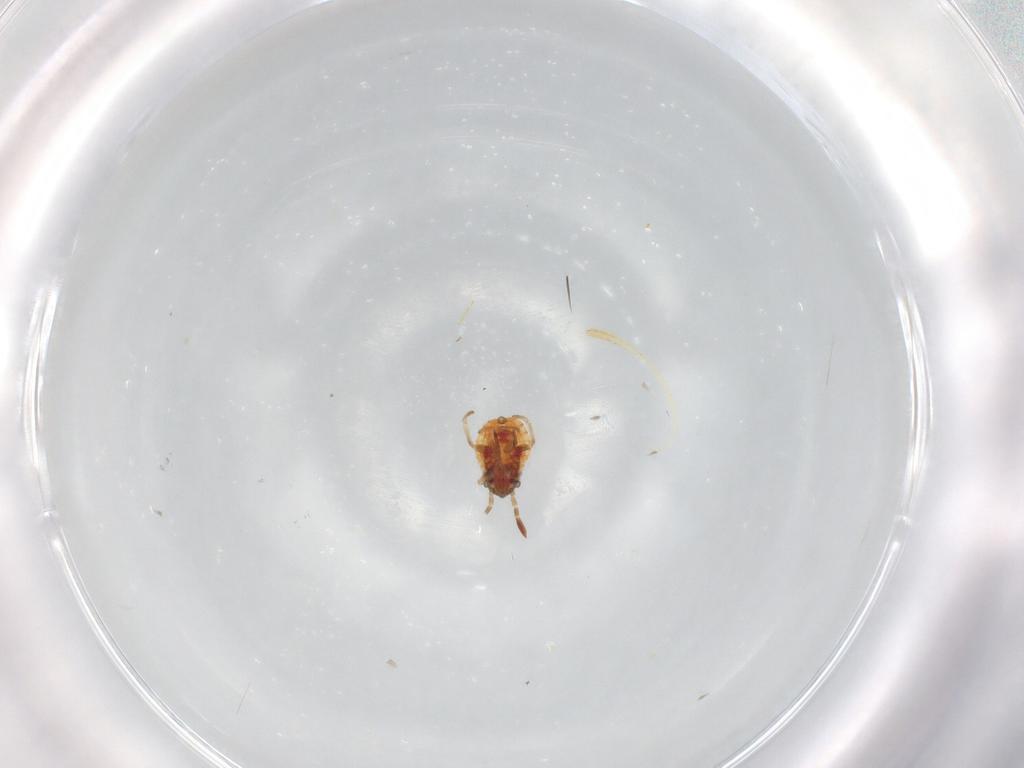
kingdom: Animalia
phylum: Arthropoda
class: Insecta
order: Hemiptera
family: Lygaeidae
